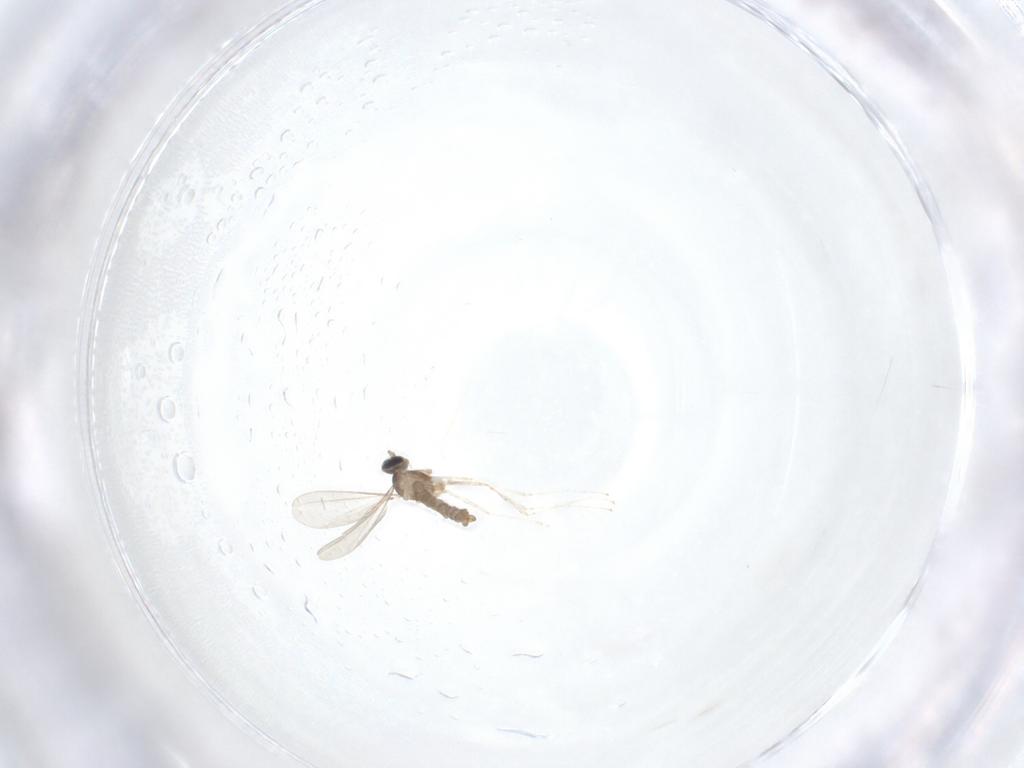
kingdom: Animalia
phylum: Arthropoda
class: Insecta
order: Diptera
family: Cecidomyiidae
